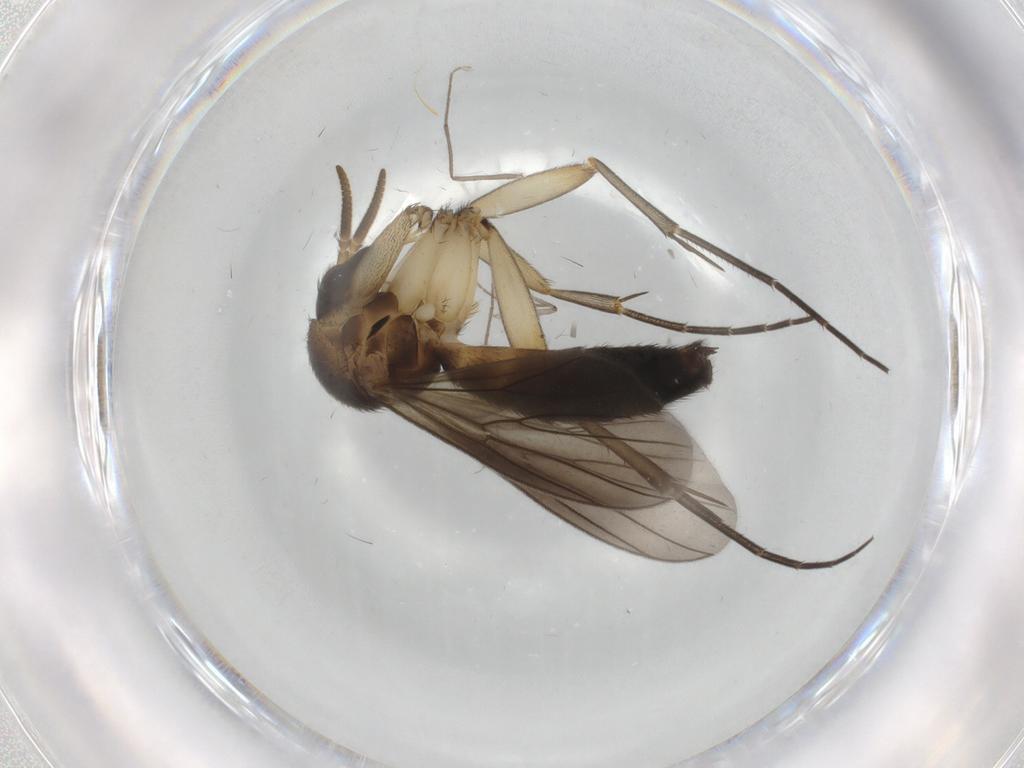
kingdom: Animalia
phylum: Arthropoda
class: Insecta
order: Diptera
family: Mycetophilidae
